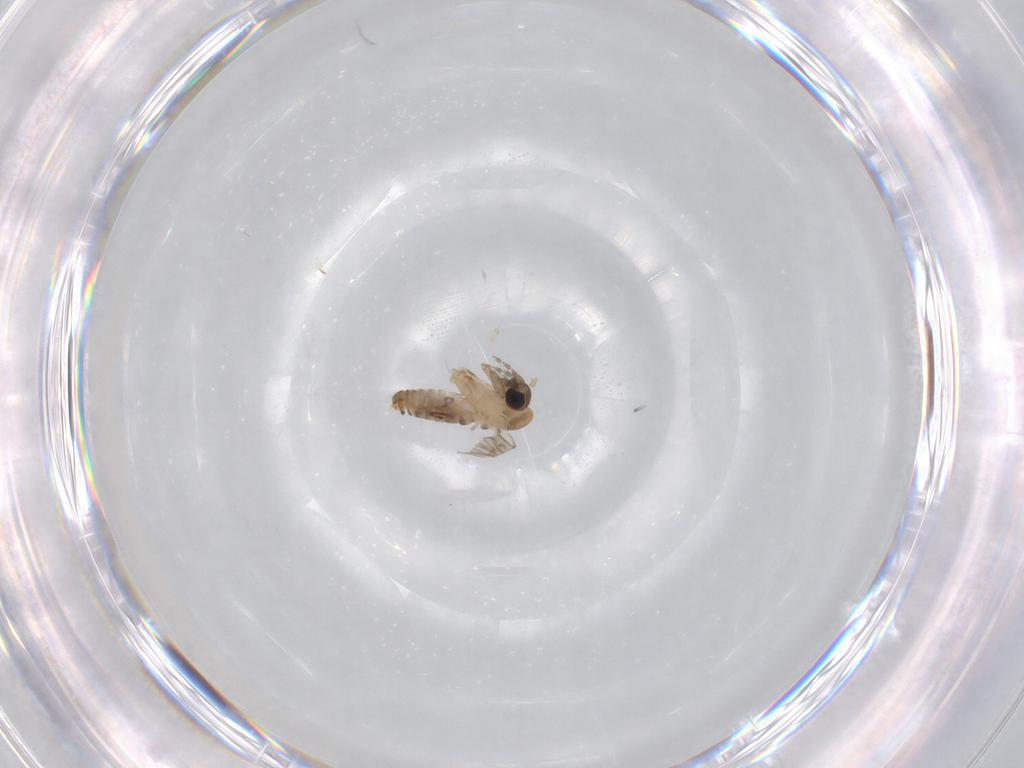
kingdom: Animalia
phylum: Arthropoda
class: Insecta
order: Diptera
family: Psychodidae
